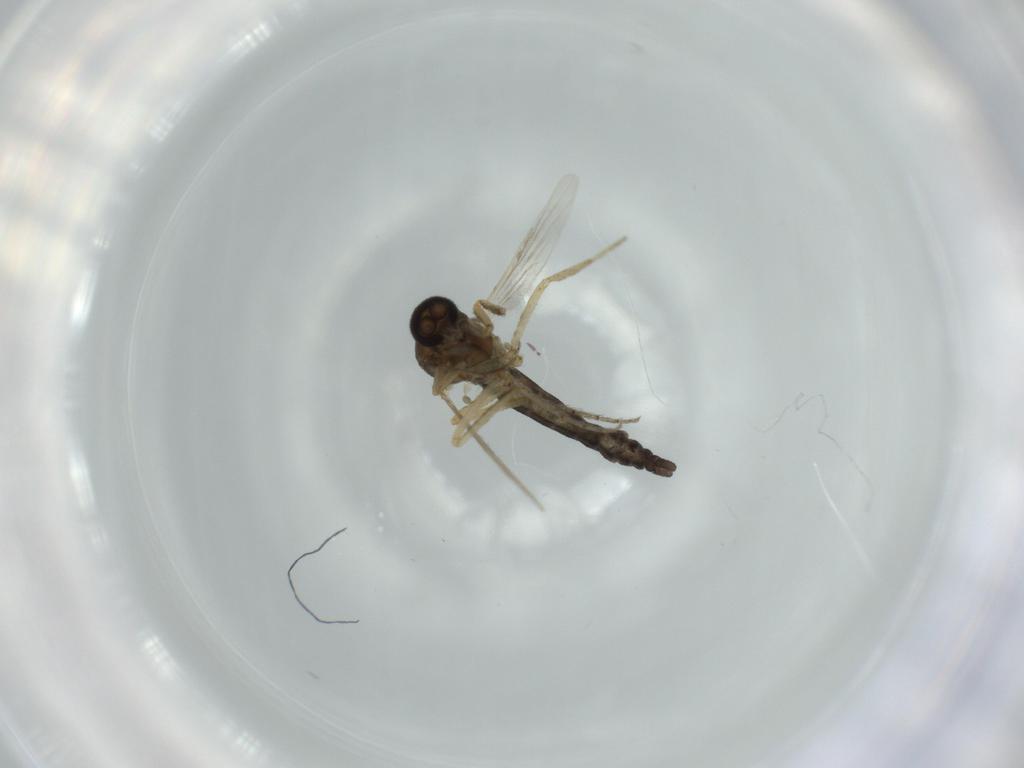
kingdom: Animalia
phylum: Arthropoda
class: Insecta
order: Diptera
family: Ceratopogonidae
